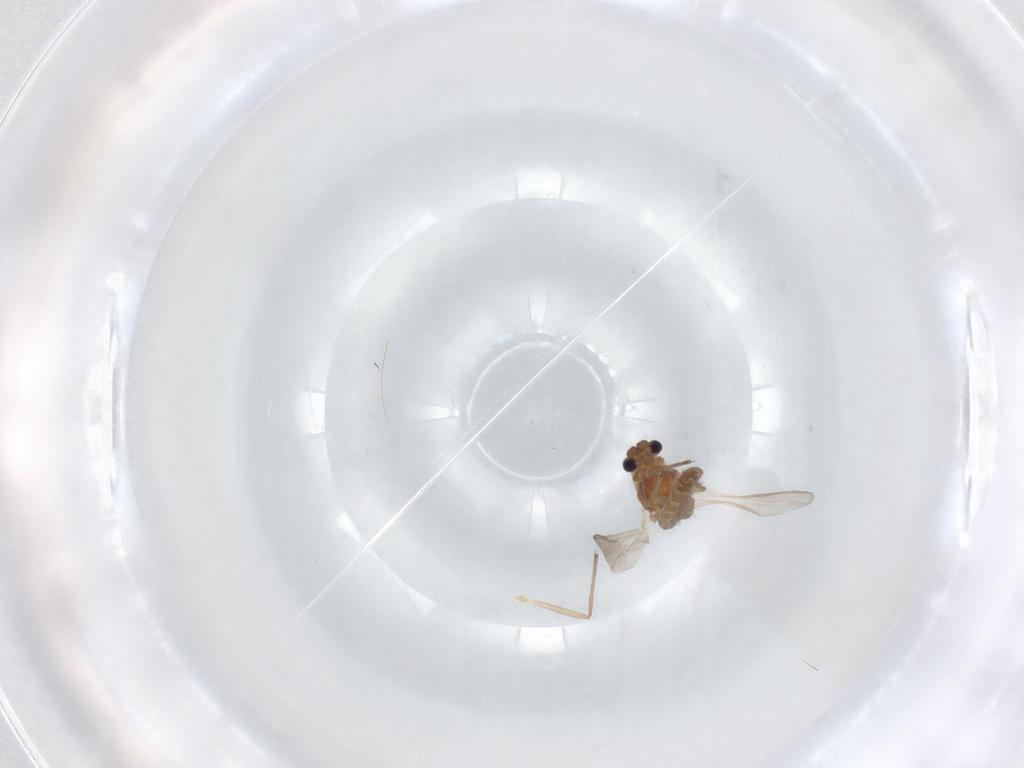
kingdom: Animalia
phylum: Arthropoda
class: Insecta
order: Diptera
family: Chironomidae
